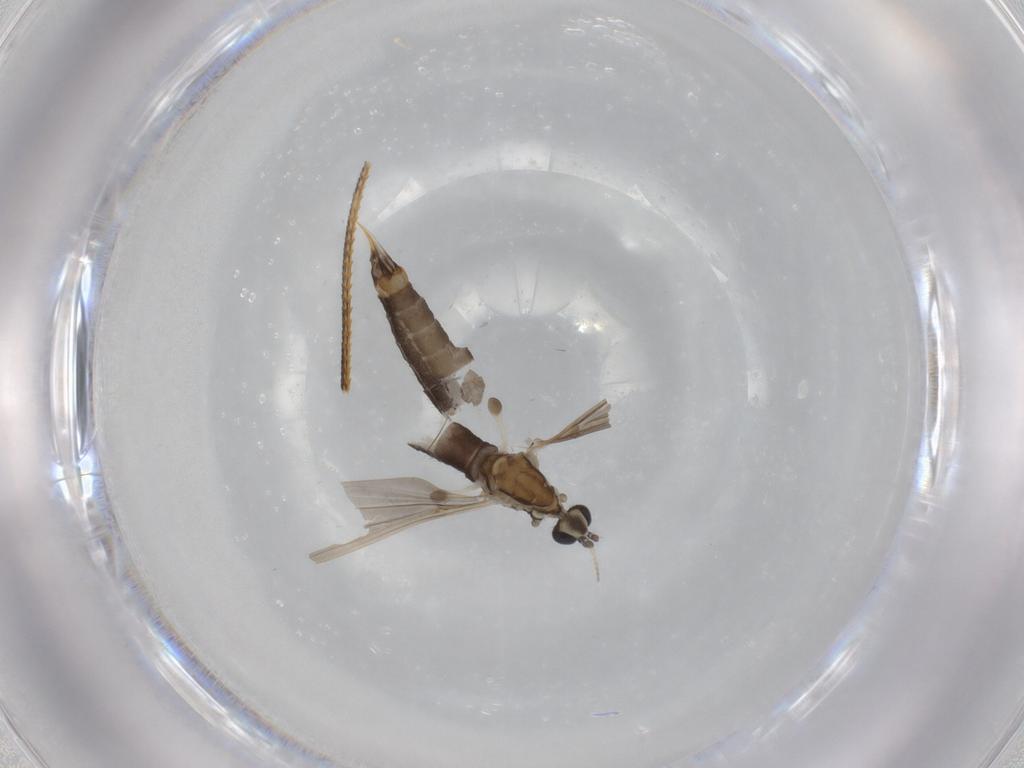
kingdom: Animalia
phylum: Arthropoda
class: Insecta
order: Diptera
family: Limoniidae
